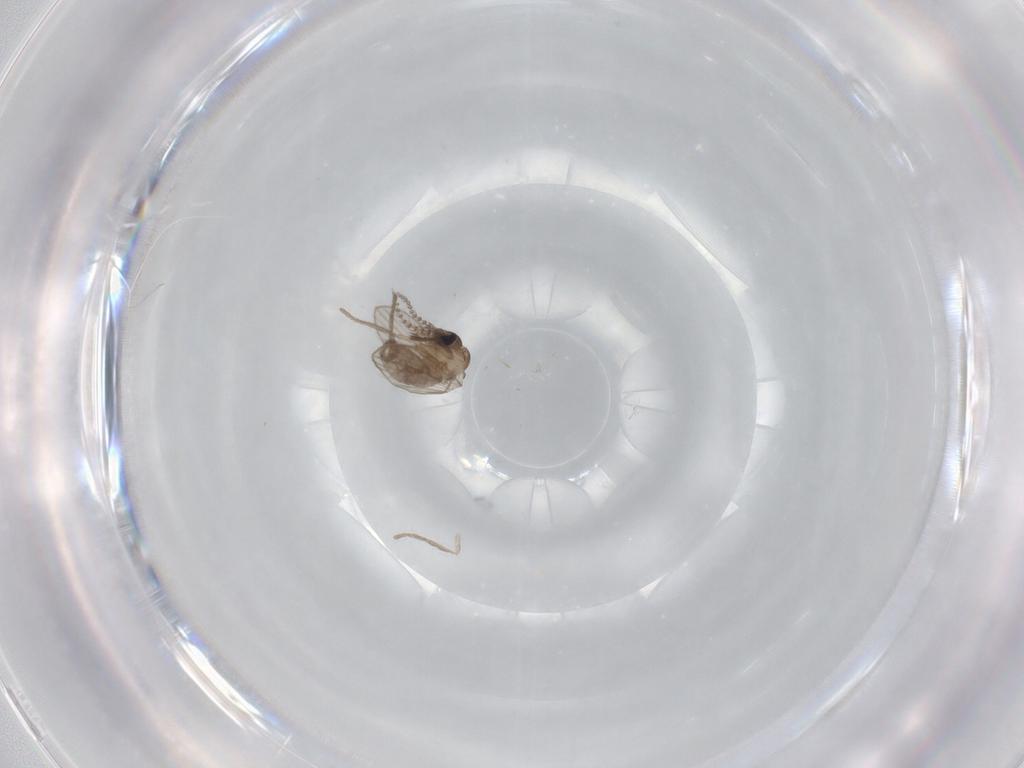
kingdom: Animalia
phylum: Arthropoda
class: Insecta
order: Diptera
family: Psychodidae
